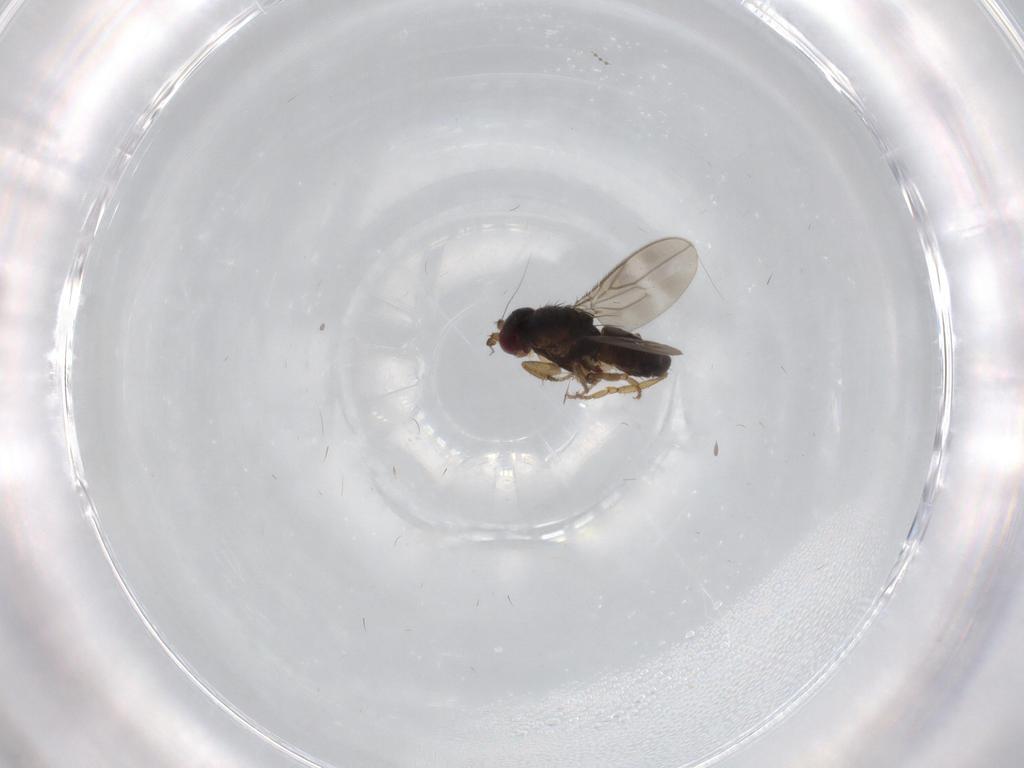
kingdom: Animalia
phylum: Arthropoda
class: Insecta
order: Diptera
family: Sphaeroceridae
